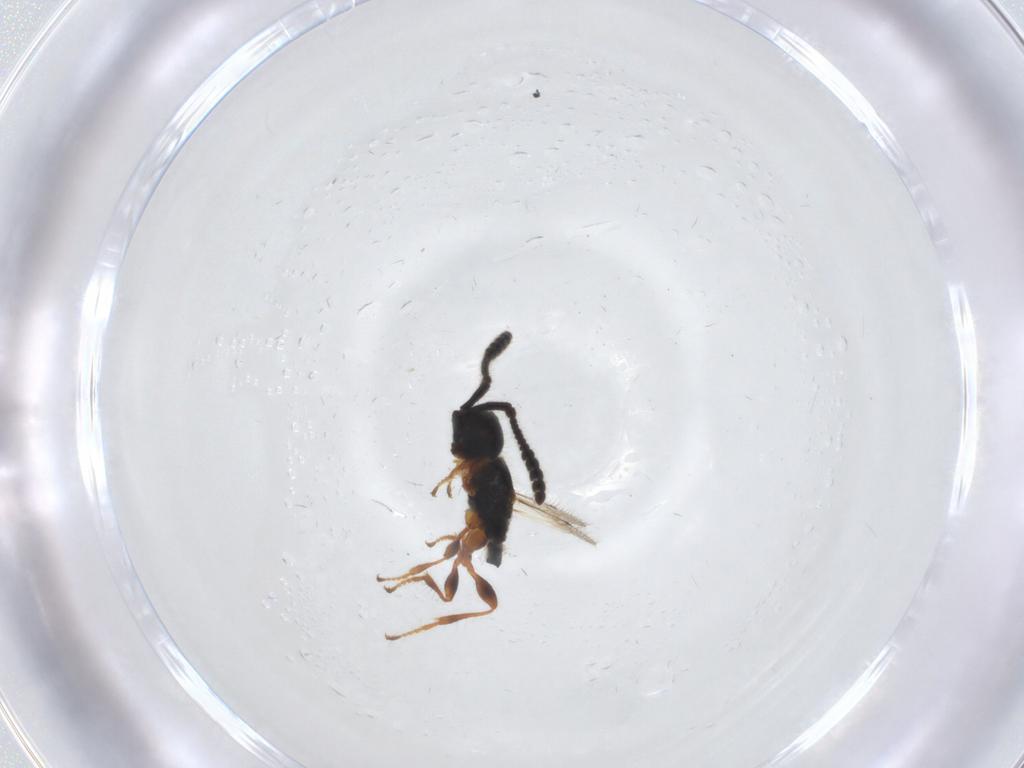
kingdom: Animalia
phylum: Arthropoda
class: Insecta
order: Hymenoptera
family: Diapriidae
